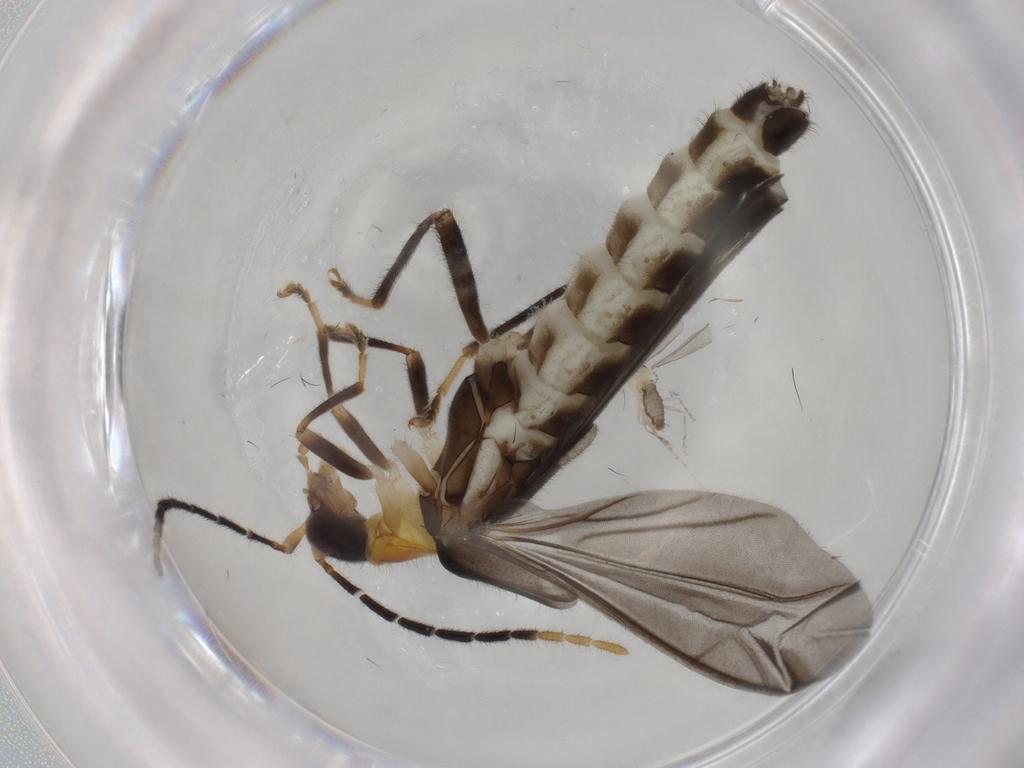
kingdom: Animalia
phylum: Arthropoda
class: Insecta
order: Coleoptera
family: Cantharidae
